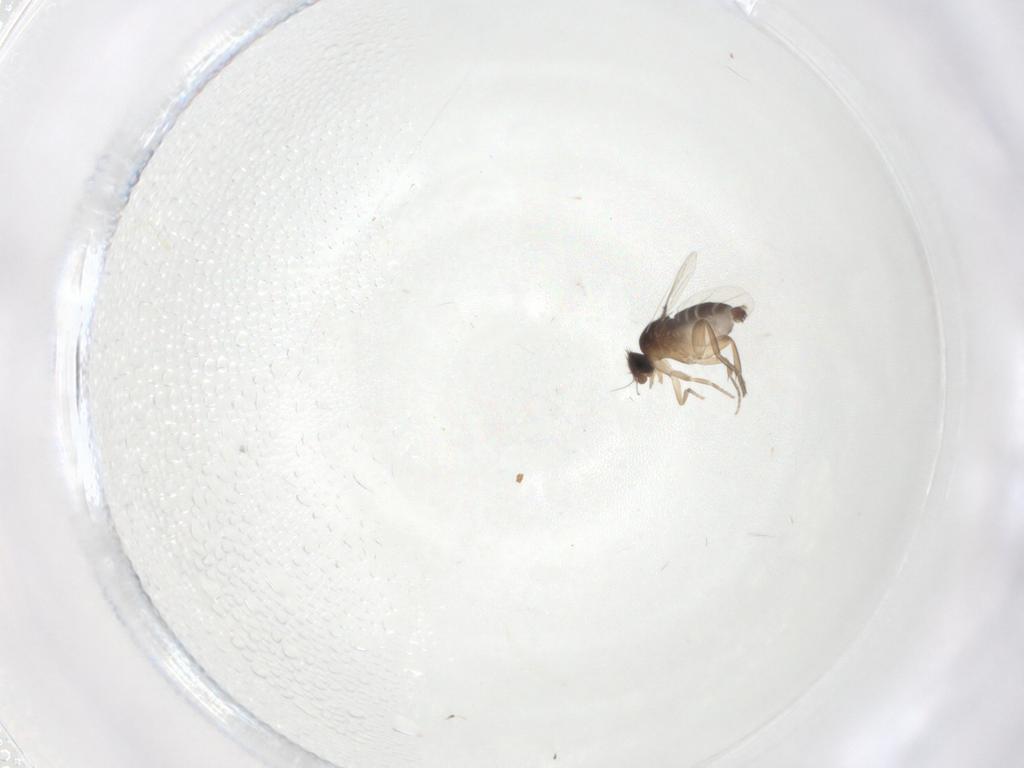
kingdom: Animalia
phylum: Arthropoda
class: Insecta
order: Diptera
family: Phoridae
